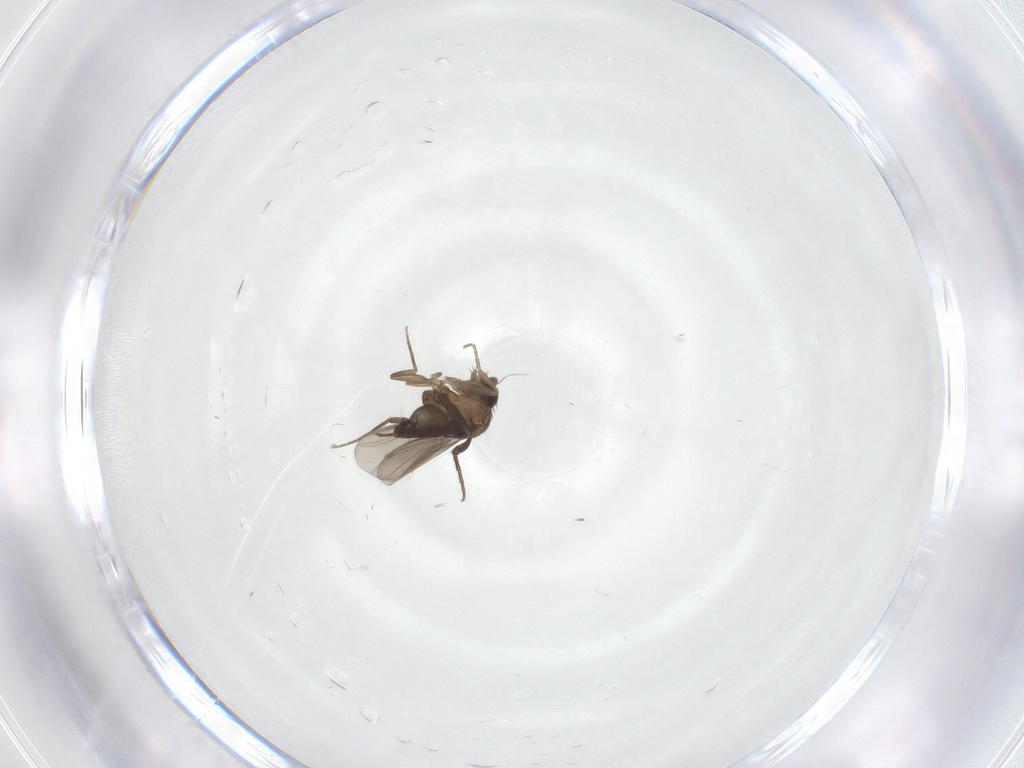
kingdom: Animalia
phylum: Arthropoda
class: Insecta
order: Diptera
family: Phoridae
